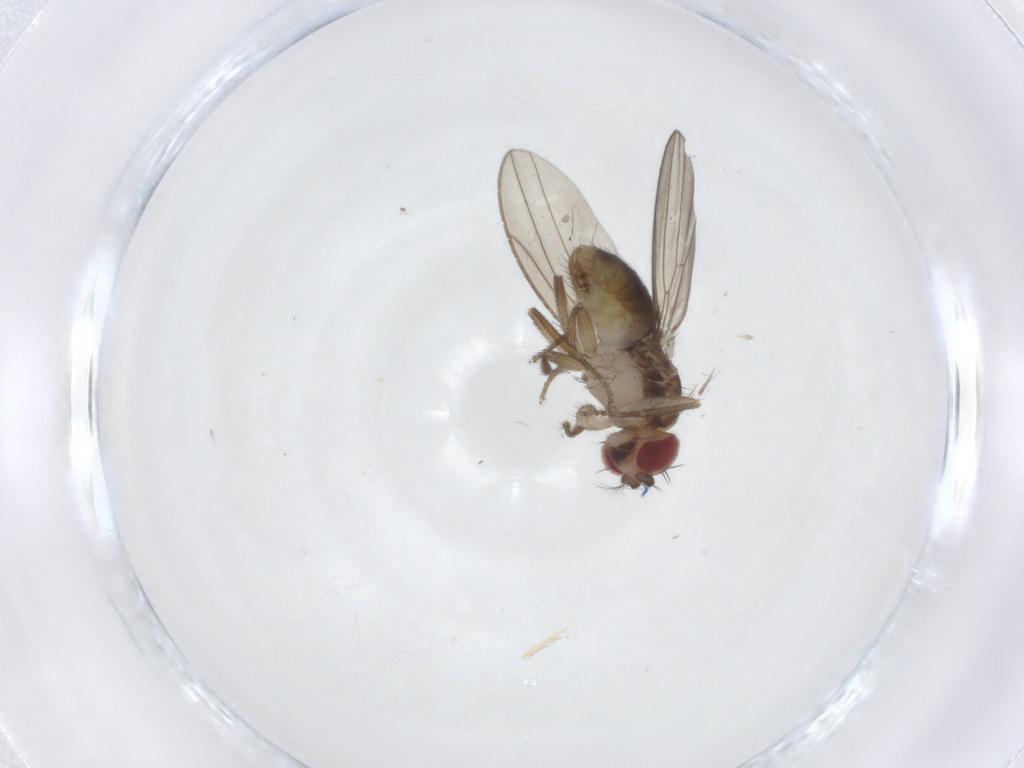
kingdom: Animalia
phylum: Arthropoda
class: Insecta
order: Diptera
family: Drosophilidae
